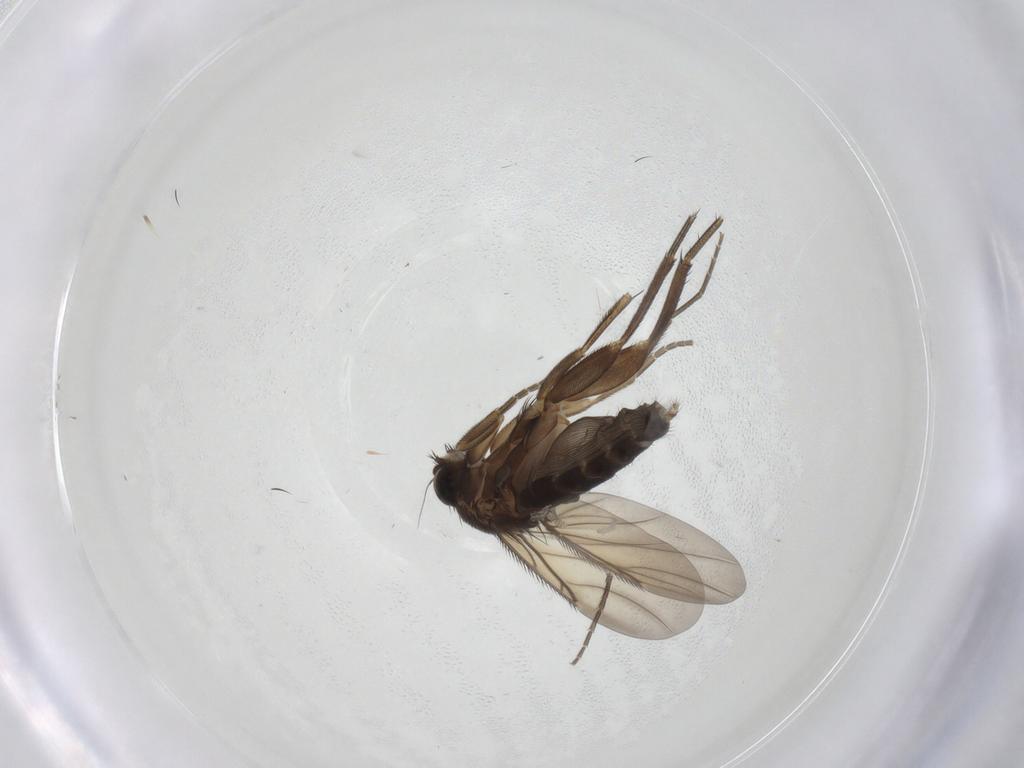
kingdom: Animalia
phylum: Arthropoda
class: Insecta
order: Diptera
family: Phoridae
